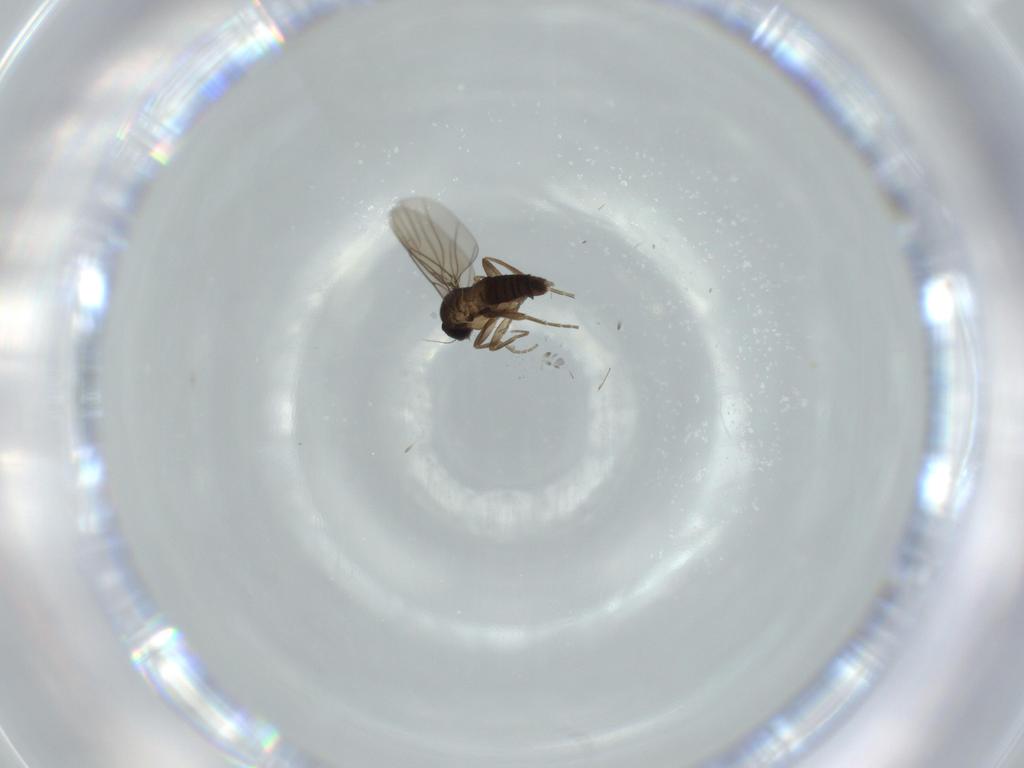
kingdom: Animalia
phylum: Arthropoda
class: Insecta
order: Diptera
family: Phoridae
